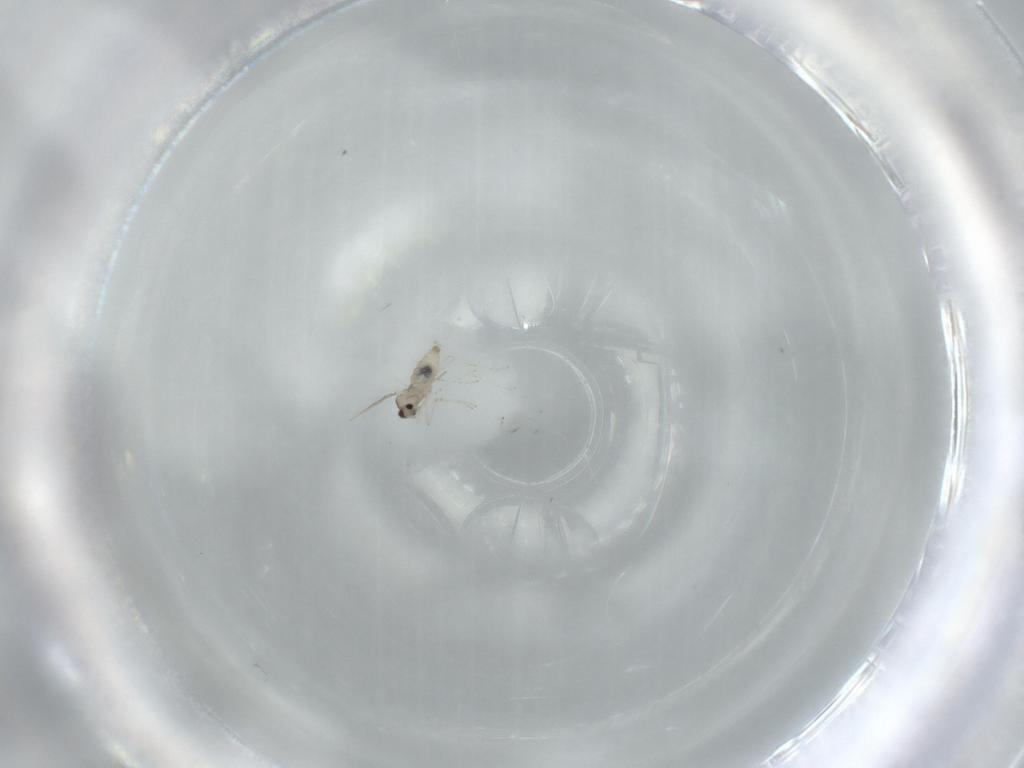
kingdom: Animalia
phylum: Arthropoda
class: Insecta
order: Diptera
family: Cecidomyiidae
